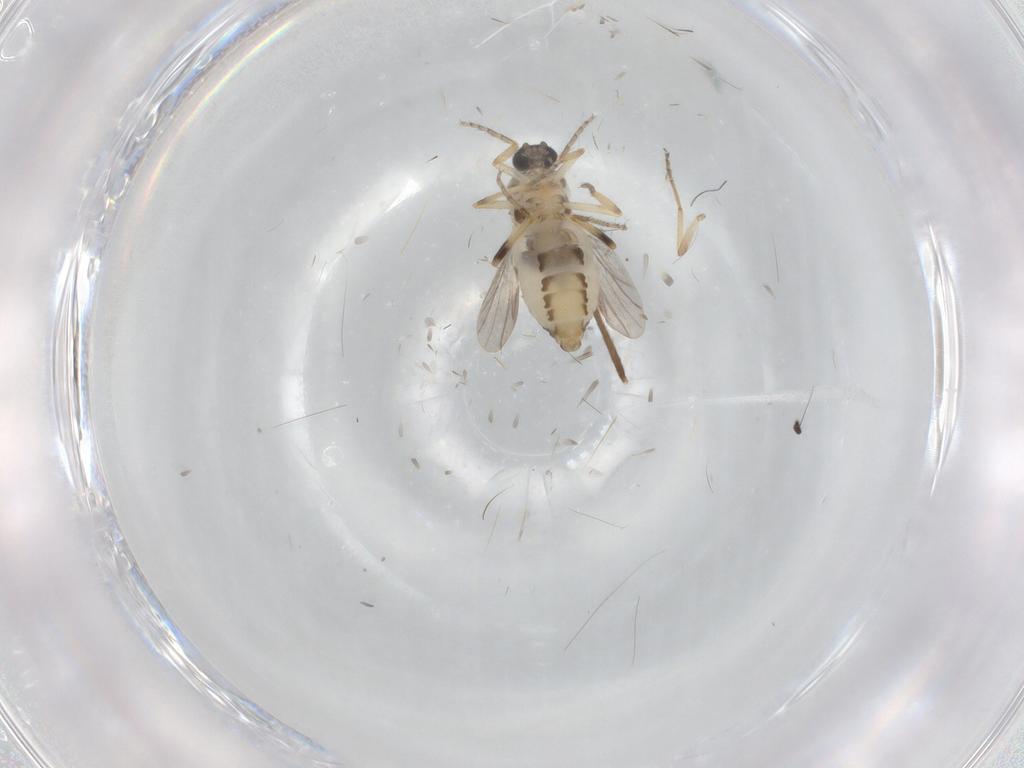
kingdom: Animalia
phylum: Arthropoda
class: Insecta
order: Diptera
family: Ceratopogonidae
